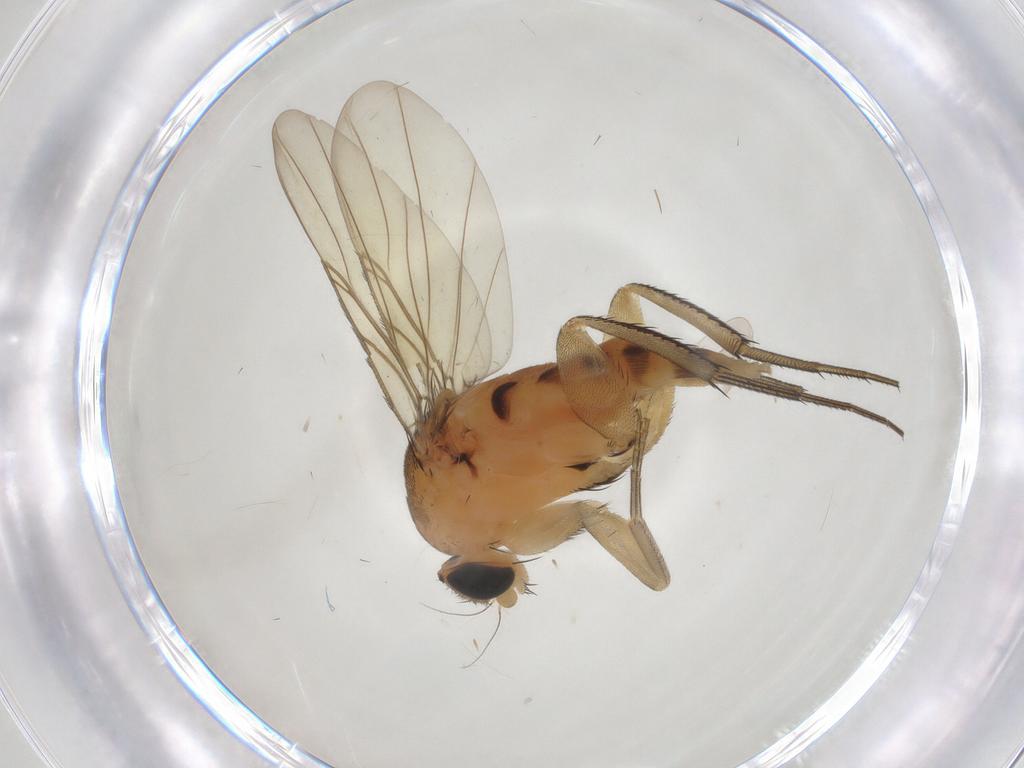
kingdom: Animalia
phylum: Arthropoda
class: Insecta
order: Diptera
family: Phoridae
